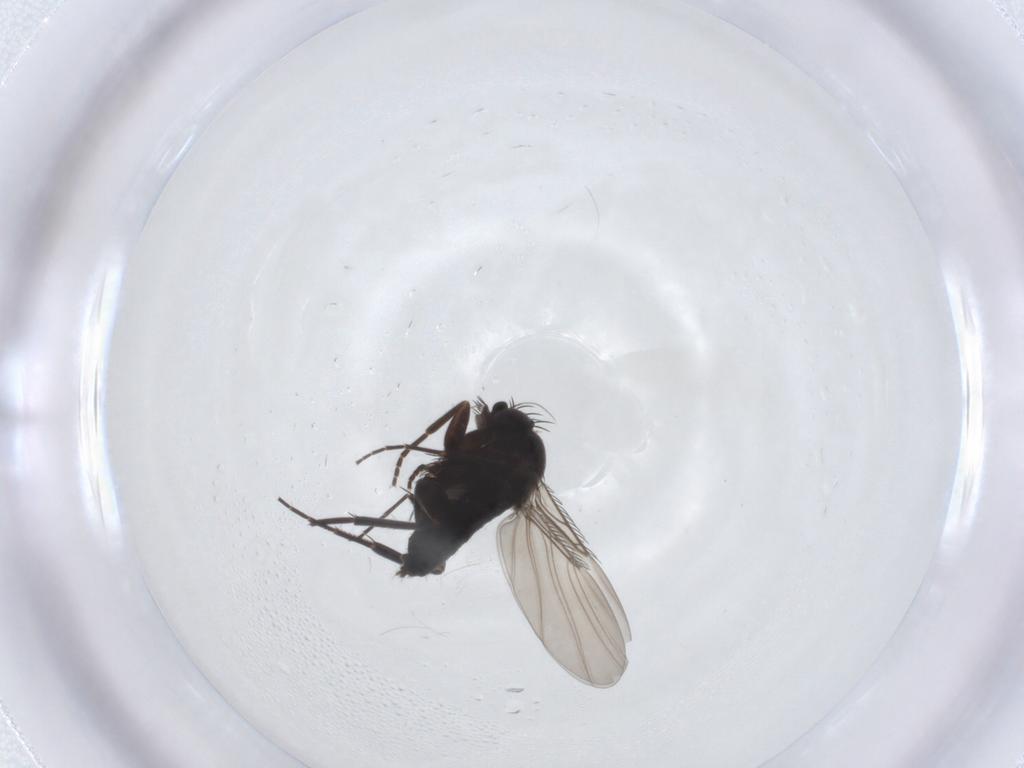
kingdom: Animalia
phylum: Arthropoda
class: Insecta
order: Diptera
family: Phoridae
